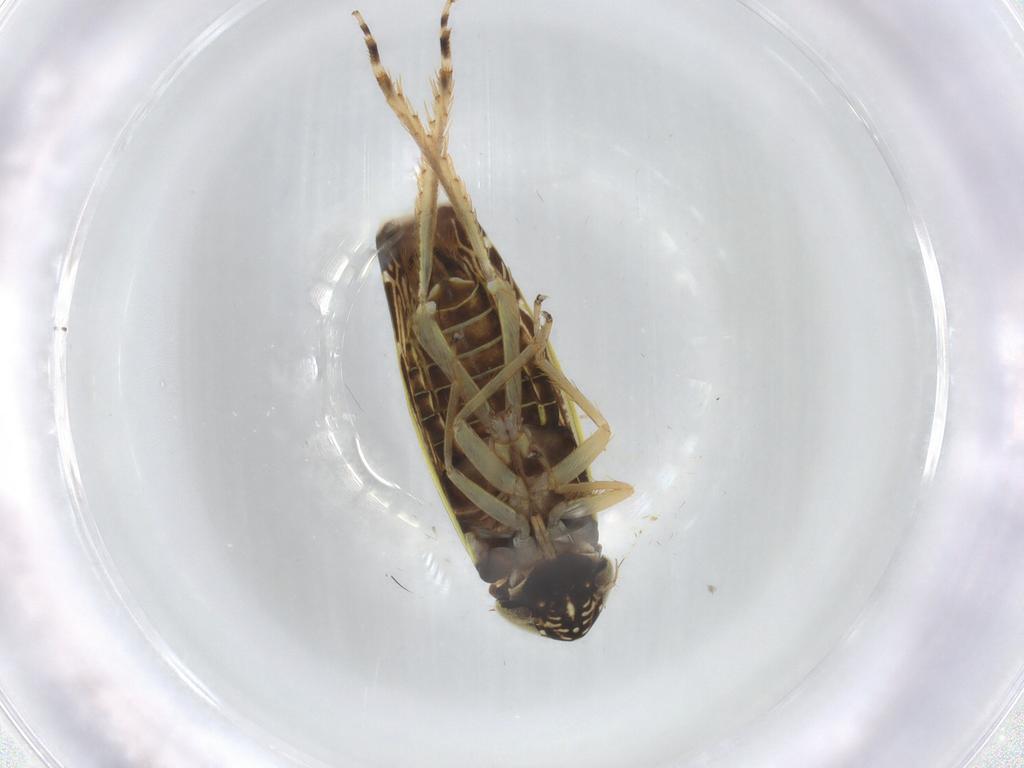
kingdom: Animalia
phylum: Arthropoda
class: Insecta
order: Hemiptera
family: Cicadellidae
